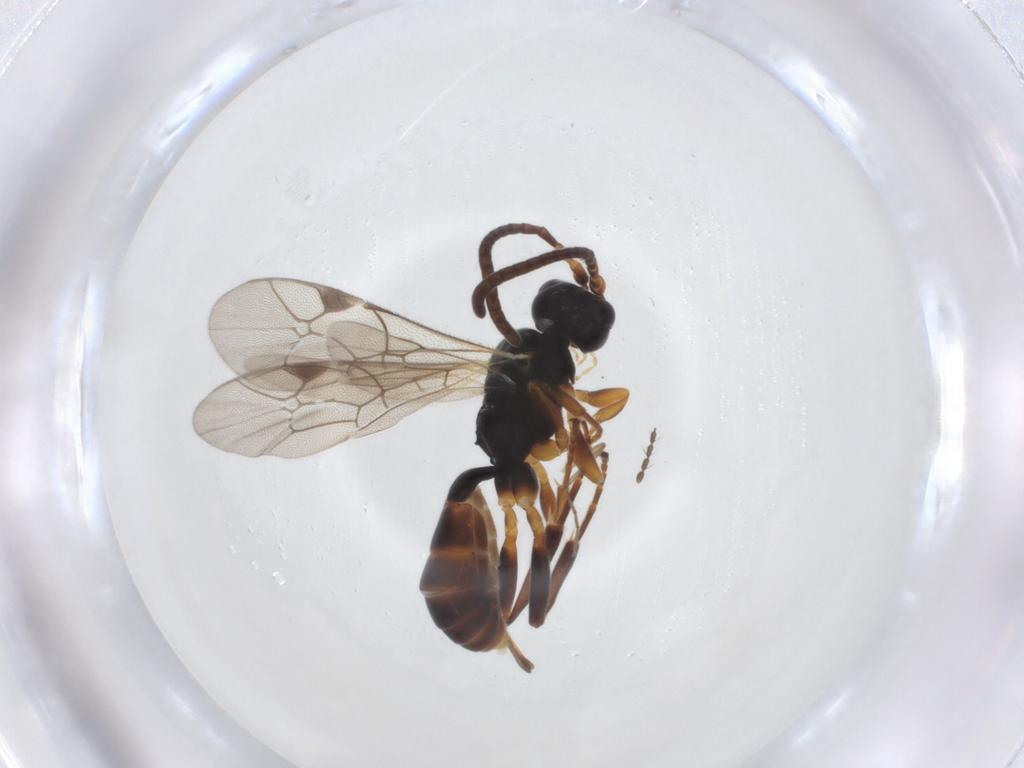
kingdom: Animalia
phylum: Arthropoda
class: Insecta
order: Hymenoptera
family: Ichneumonidae
